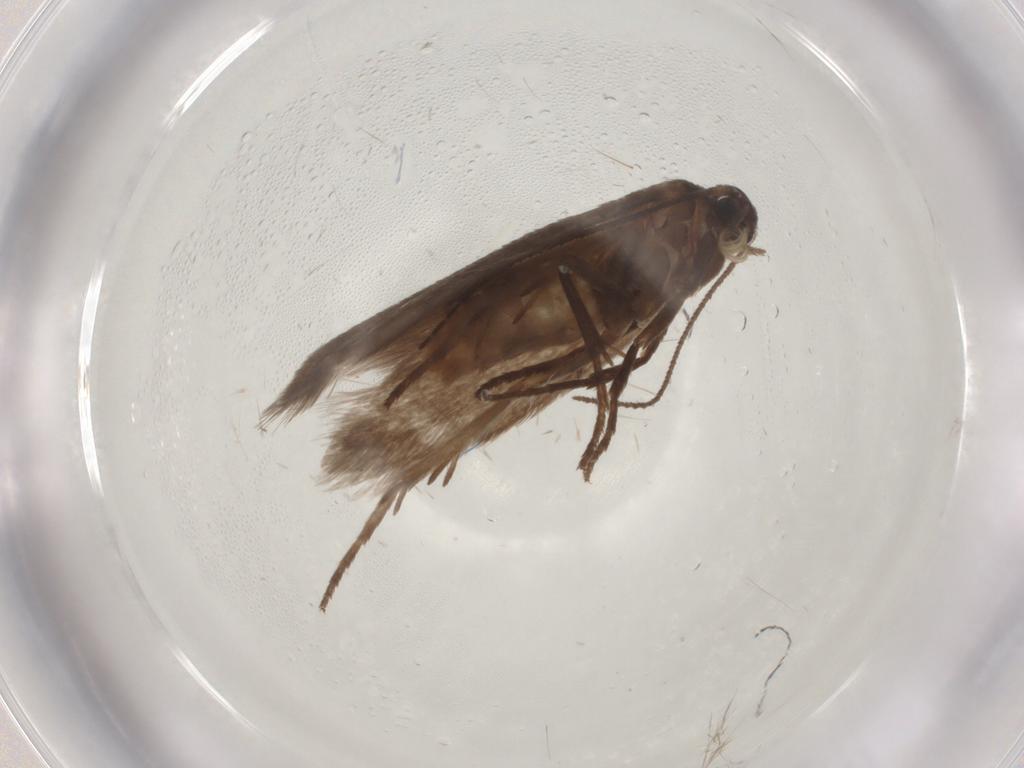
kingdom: Animalia
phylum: Arthropoda
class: Insecta
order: Lepidoptera
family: Limacodidae
